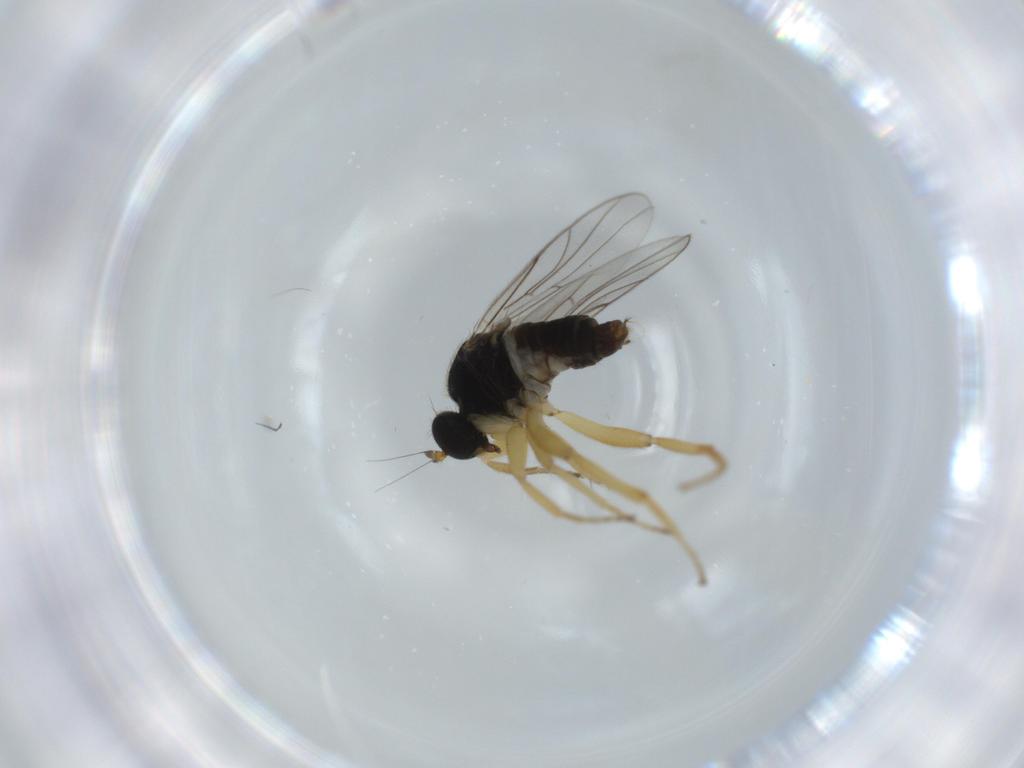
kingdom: Animalia
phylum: Arthropoda
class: Insecta
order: Diptera
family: Hybotidae
